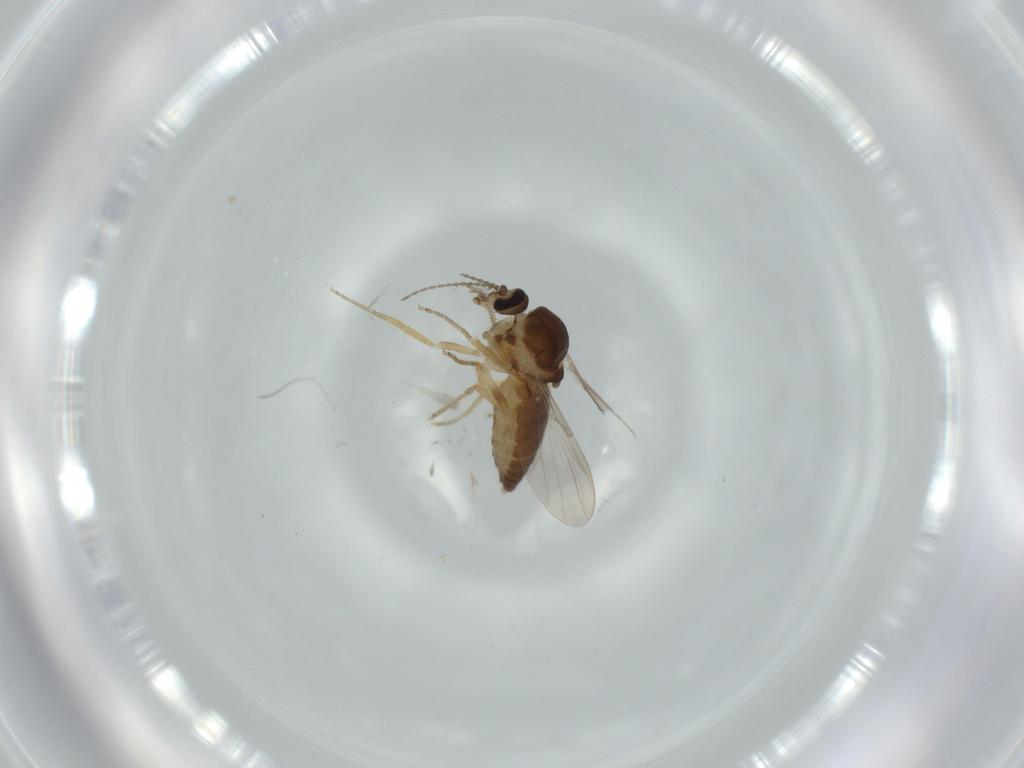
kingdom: Animalia
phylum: Arthropoda
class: Insecta
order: Diptera
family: Ceratopogonidae
